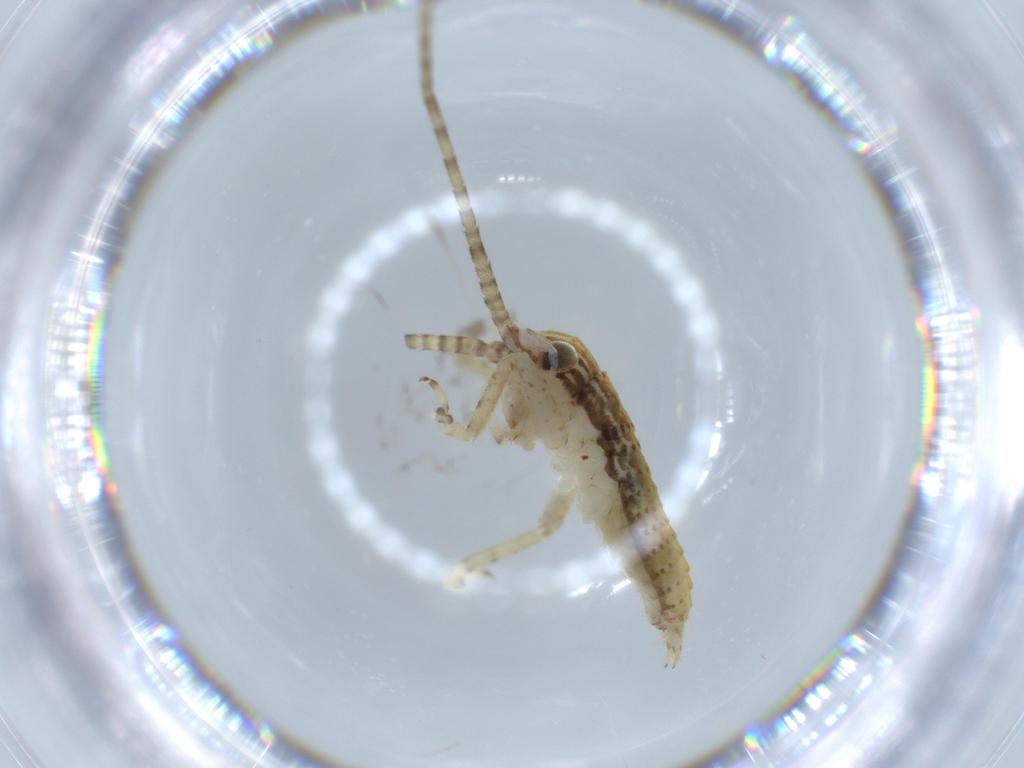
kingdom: Animalia
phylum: Arthropoda
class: Insecta
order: Orthoptera
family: Gryllidae
